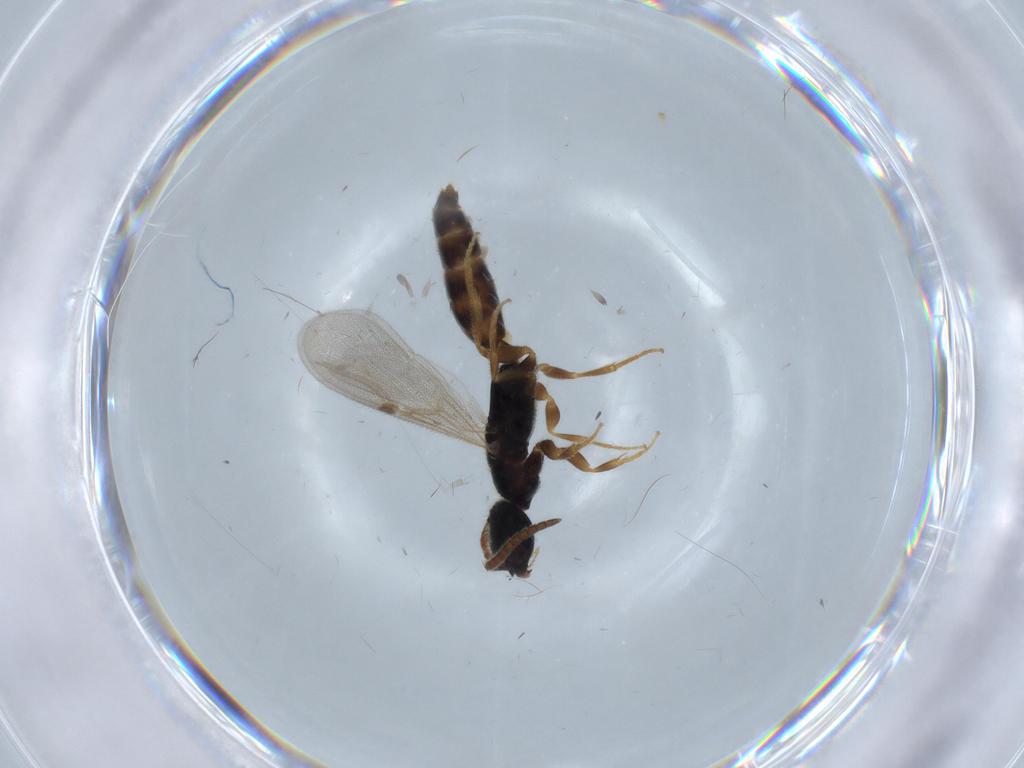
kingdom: Animalia
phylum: Arthropoda
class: Insecta
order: Hymenoptera
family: Bethylidae
